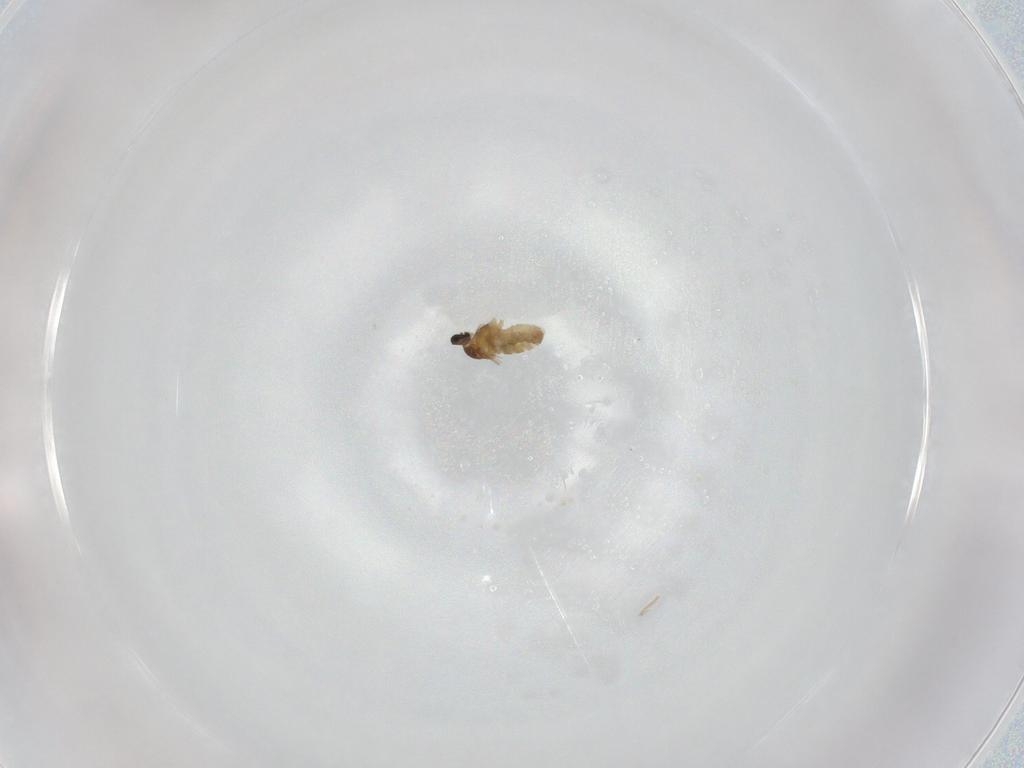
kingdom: Animalia
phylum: Arthropoda
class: Insecta
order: Diptera
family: Cecidomyiidae
